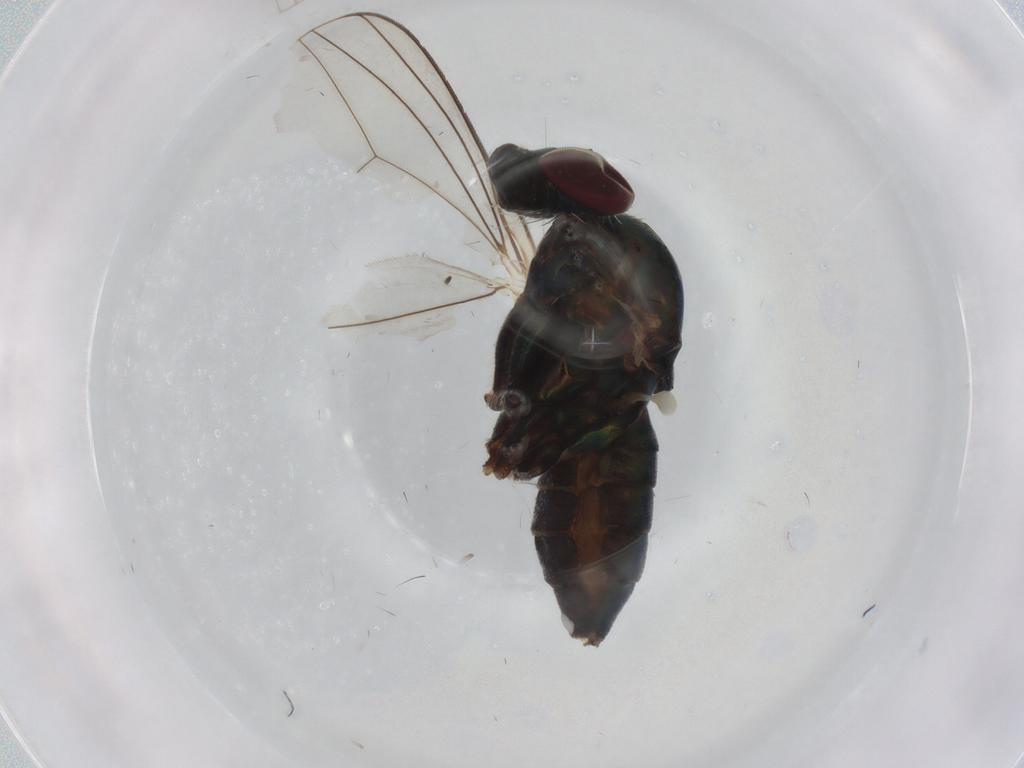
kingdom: Animalia
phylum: Arthropoda
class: Insecta
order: Diptera
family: Dolichopodidae
